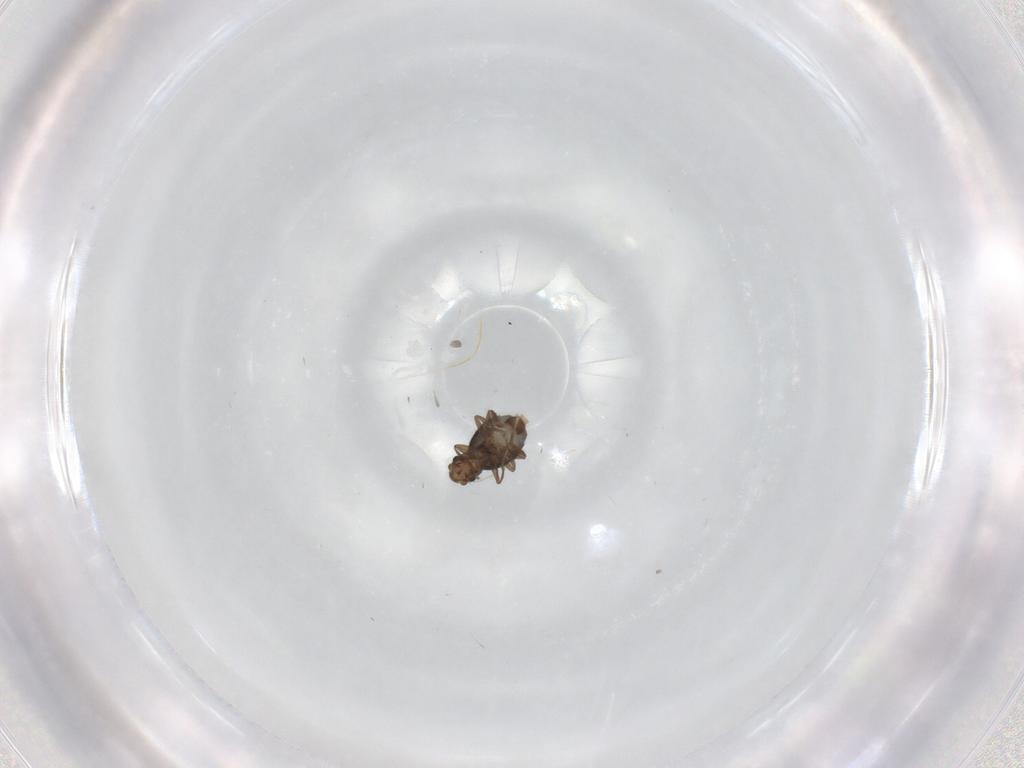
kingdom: Animalia
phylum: Arthropoda
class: Insecta
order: Diptera
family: Phoridae
